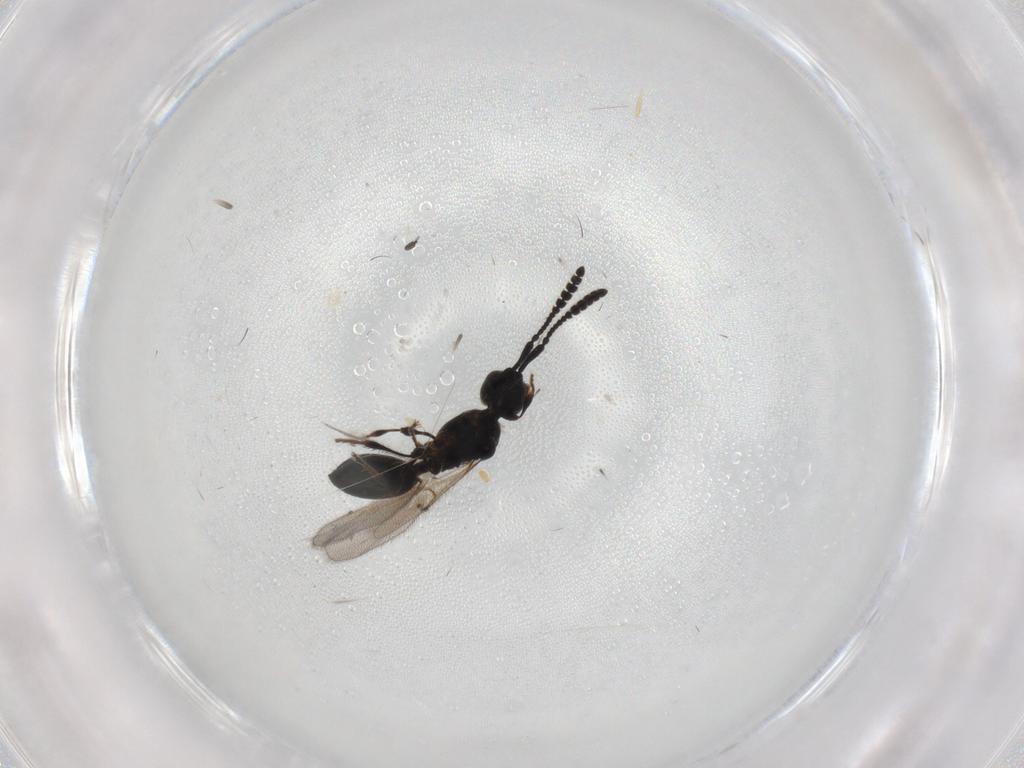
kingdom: Animalia
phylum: Arthropoda
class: Insecta
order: Hymenoptera
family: Diapriidae
